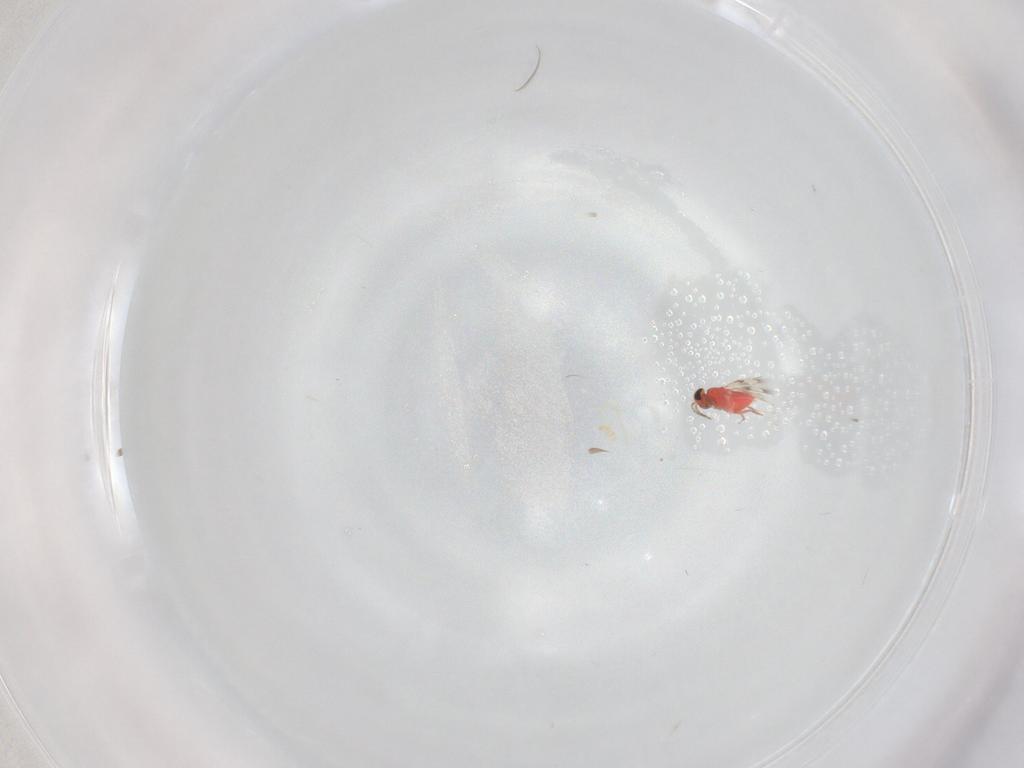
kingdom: Animalia
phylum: Arthropoda
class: Insecta
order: Hymenoptera
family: Trichogrammatidae
